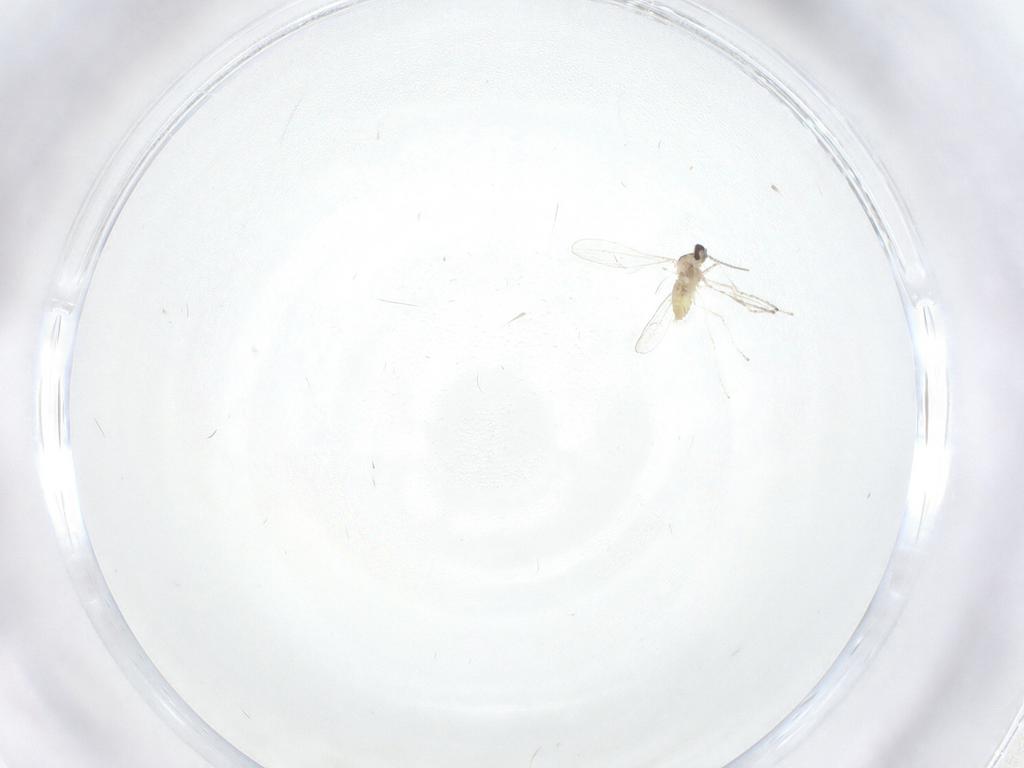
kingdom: Animalia
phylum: Arthropoda
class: Insecta
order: Diptera
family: Cecidomyiidae
